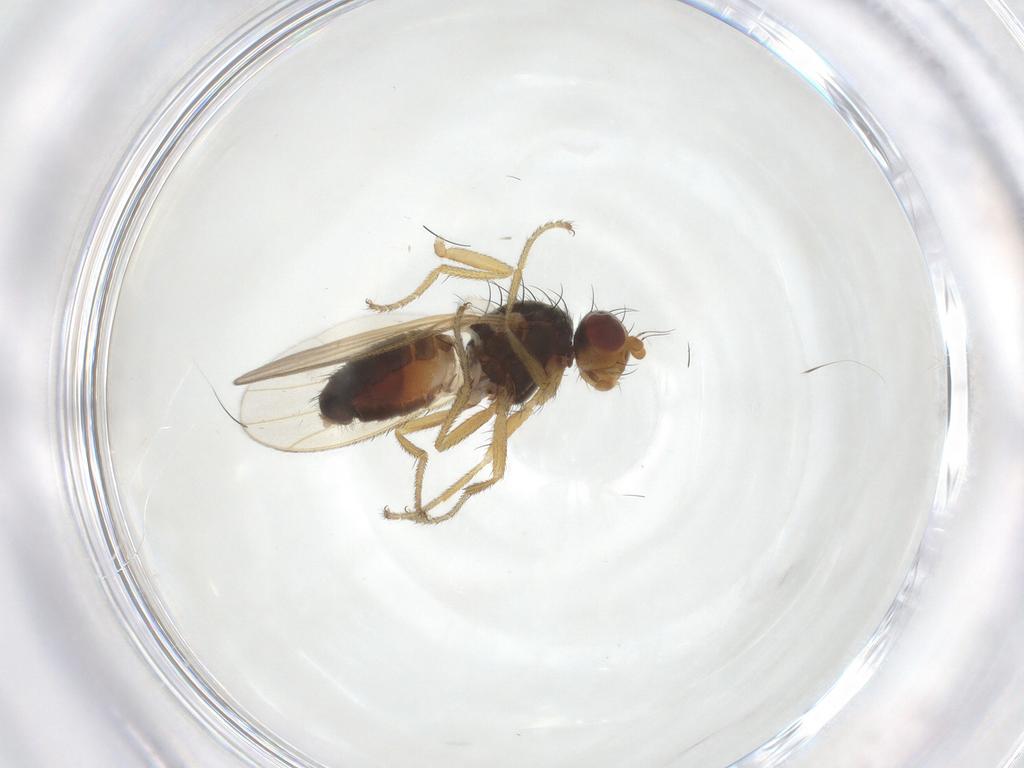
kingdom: Animalia
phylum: Arthropoda
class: Insecta
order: Diptera
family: Heleomyzidae
